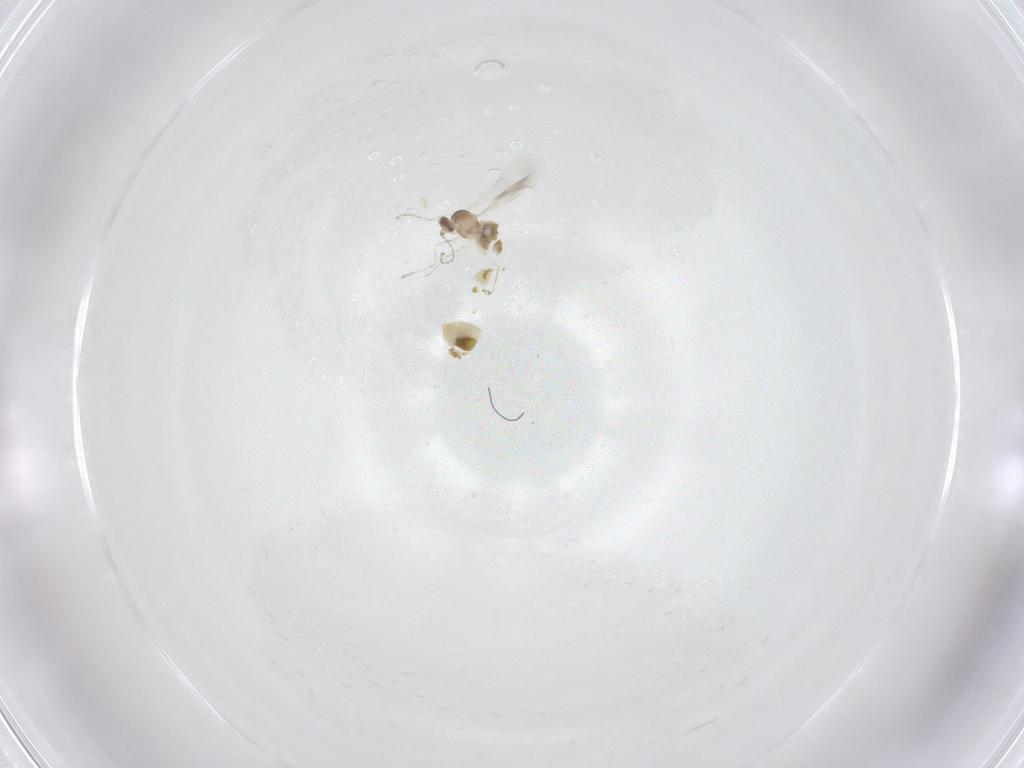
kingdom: Animalia
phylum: Arthropoda
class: Insecta
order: Diptera
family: Cecidomyiidae
